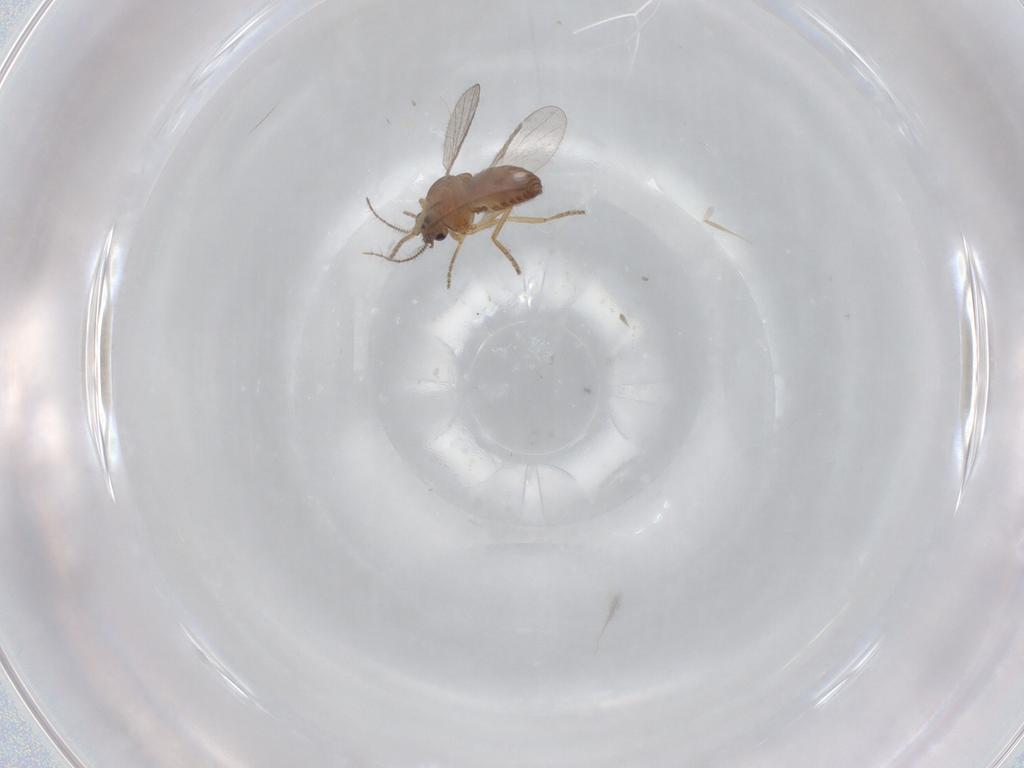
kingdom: Animalia
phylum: Arthropoda
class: Insecta
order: Diptera
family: Ceratopogonidae
